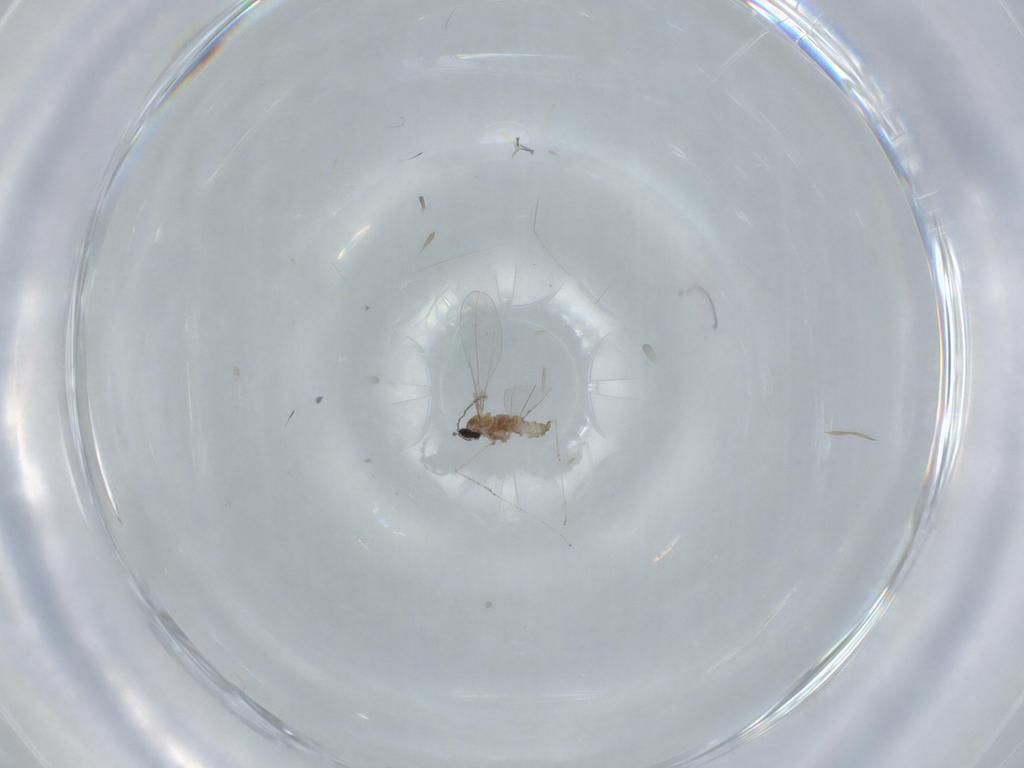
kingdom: Animalia
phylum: Arthropoda
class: Insecta
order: Diptera
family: Cecidomyiidae
